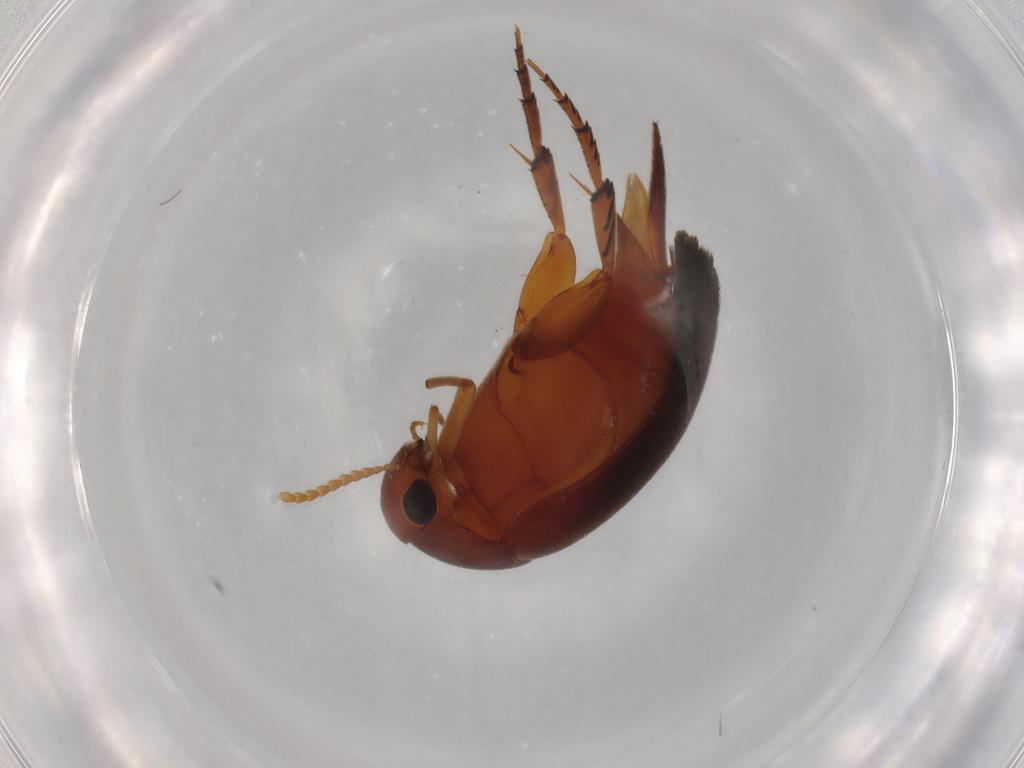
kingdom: Animalia
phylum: Arthropoda
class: Insecta
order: Coleoptera
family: Mordellidae
